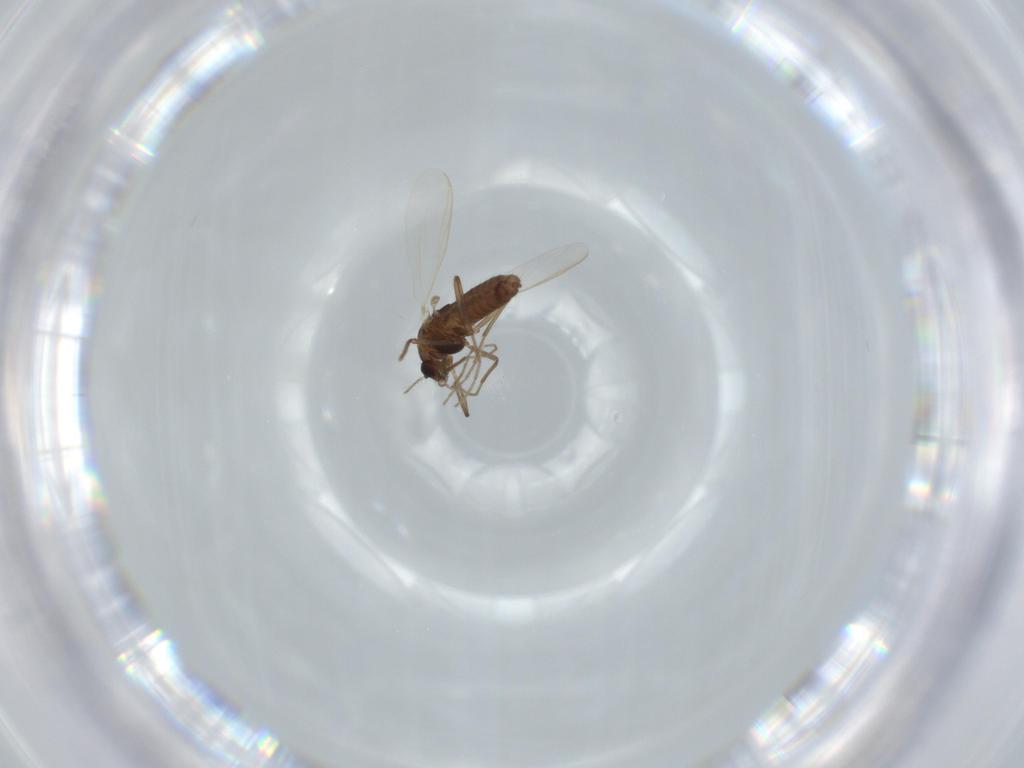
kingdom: Animalia
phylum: Arthropoda
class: Insecta
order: Diptera
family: Chironomidae
